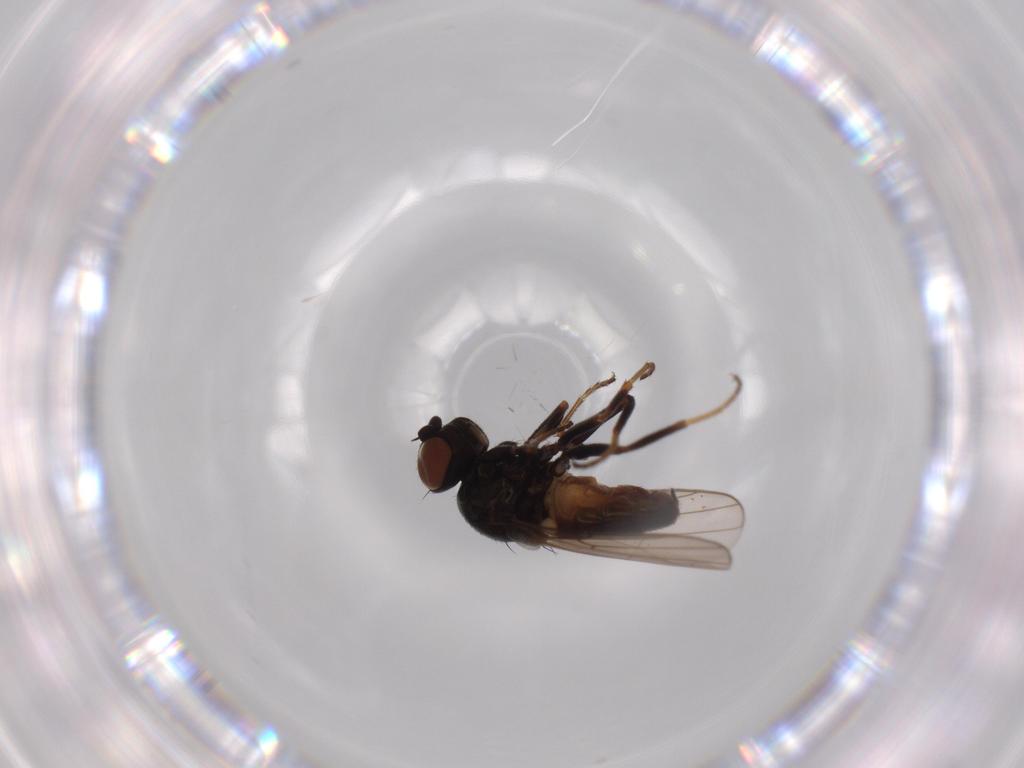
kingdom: Animalia
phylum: Arthropoda
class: Insecta
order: Diptera
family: Chloropidae
